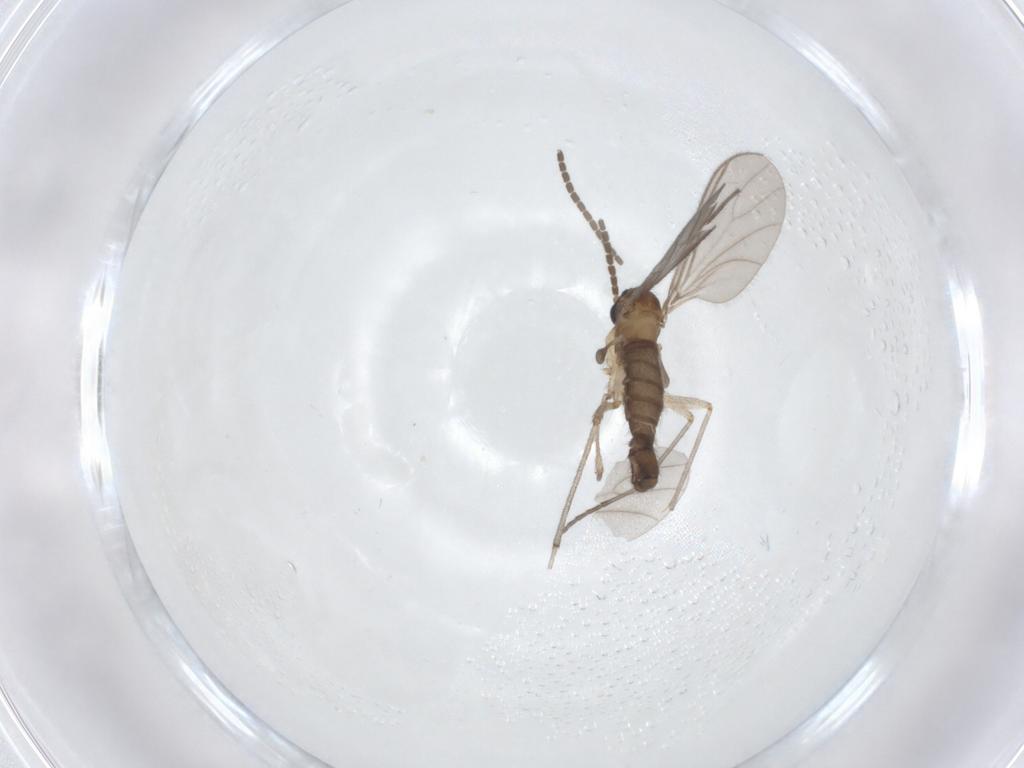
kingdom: Animalia
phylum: Arthropoda
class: Insecta
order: Diptera
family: Sciaridae
